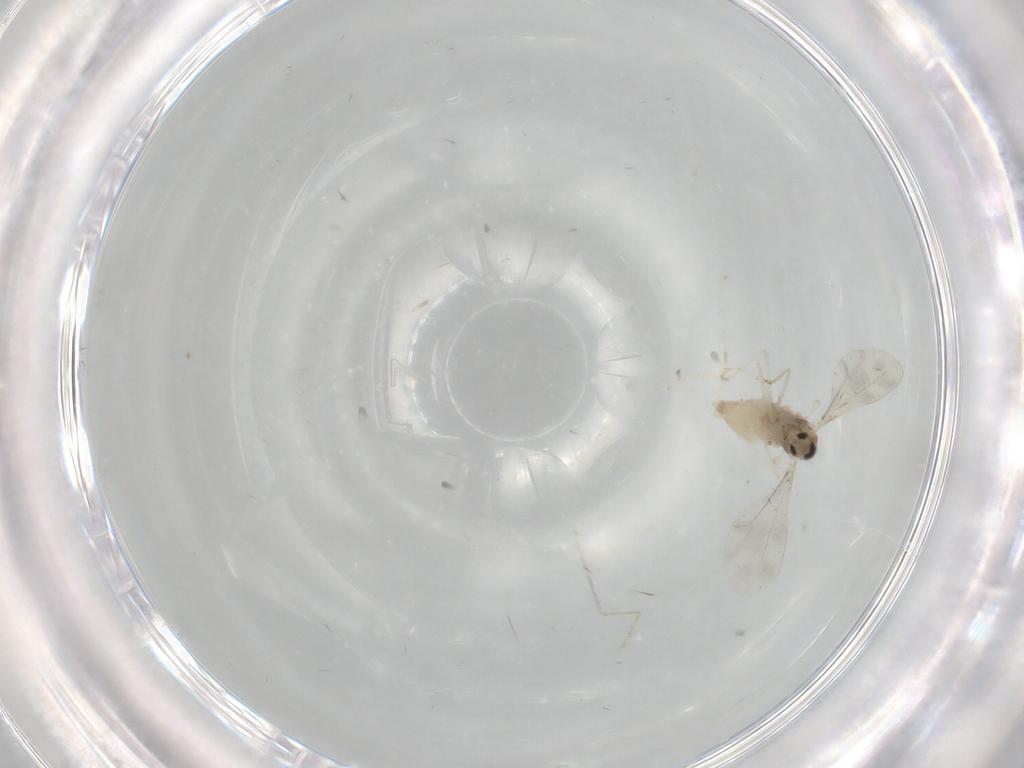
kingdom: Animalia
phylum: Arthropoda
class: Insecta
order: Diptera
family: Cecidomyiidae
